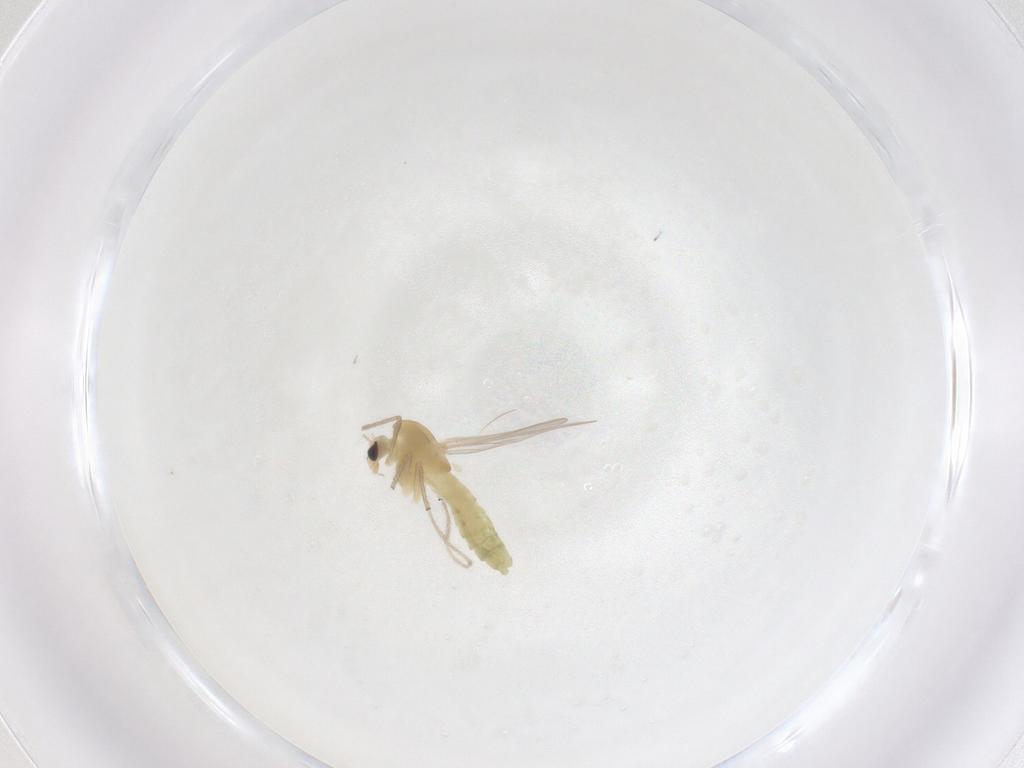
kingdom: Animalia
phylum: Arthropoda
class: Insecta
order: Diptera
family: Chironomidae
